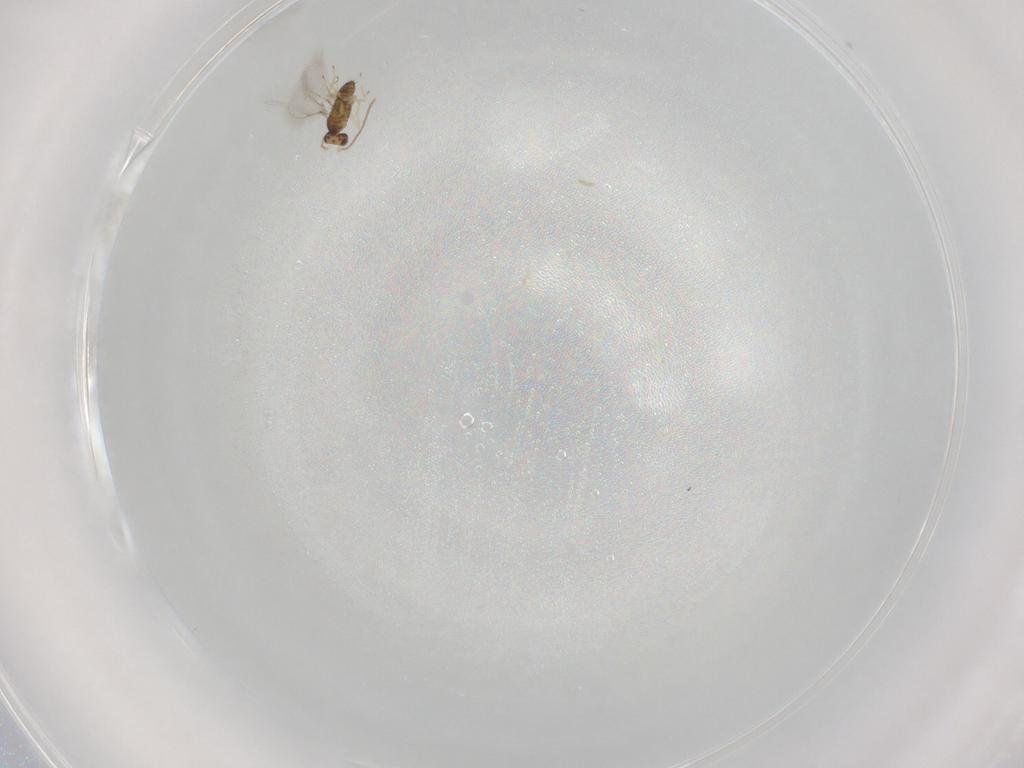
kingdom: Animalia
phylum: Arthropoda
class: Insecta
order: Hymenoptera
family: Mymaridae
